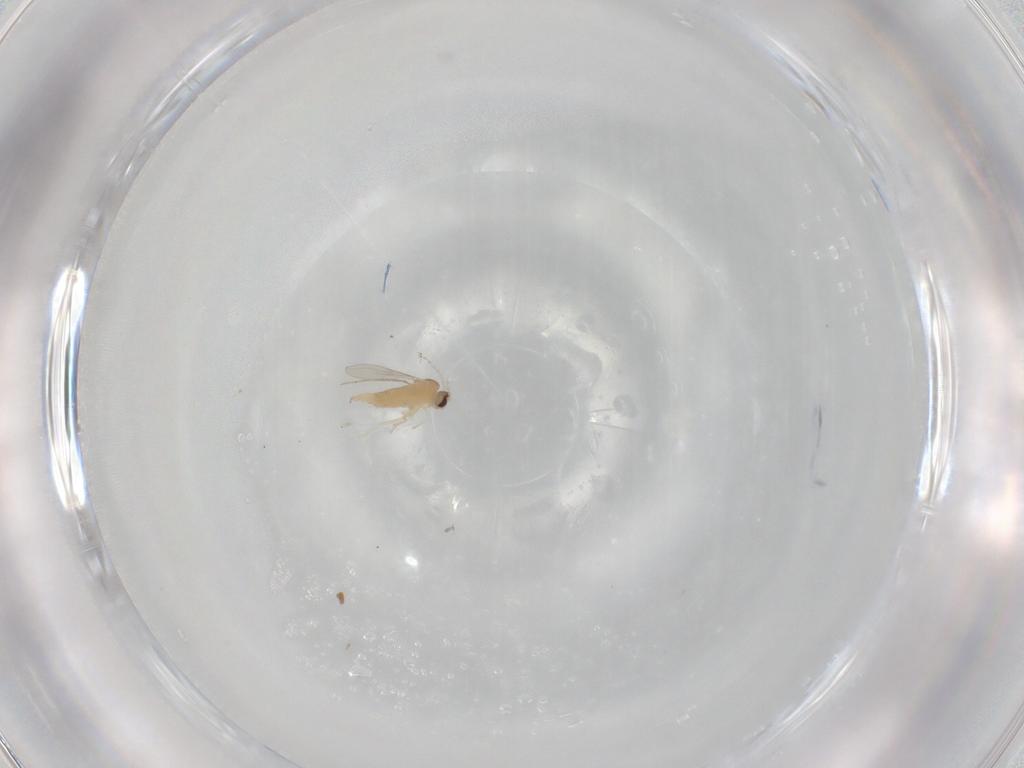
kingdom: Animalia
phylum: Arthropoda
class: Insecta
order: Diptera
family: Cecidomyiidae
